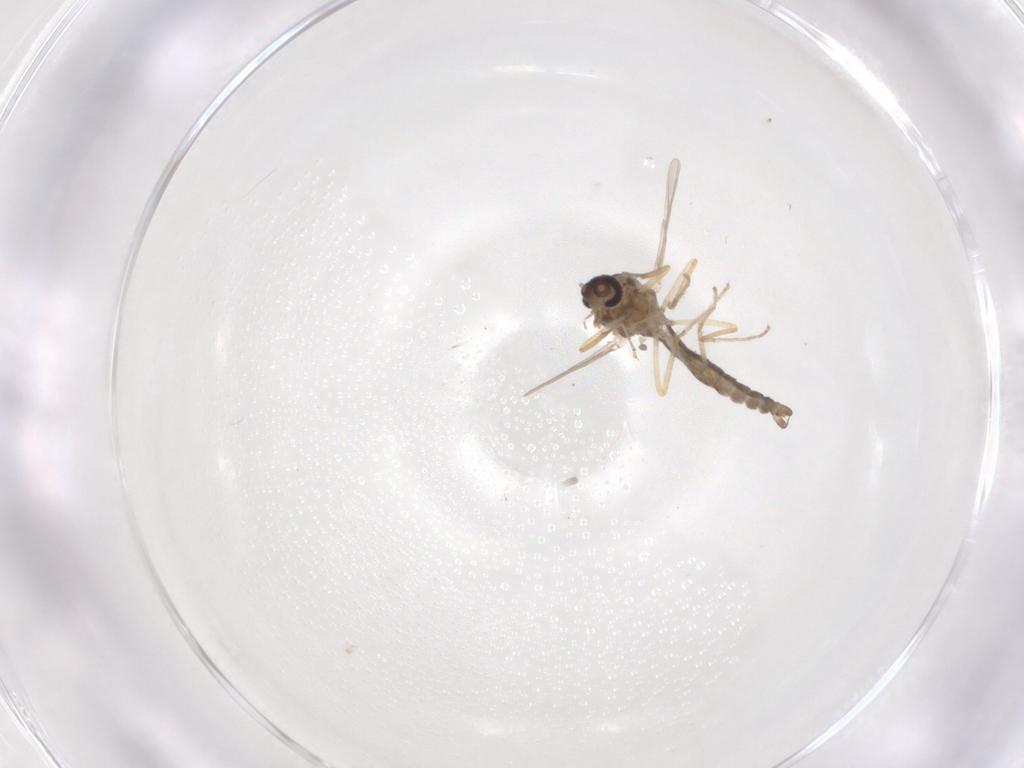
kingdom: Animalia
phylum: Arthropoda
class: Insecta
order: Diptera
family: Ceratopogonidae
